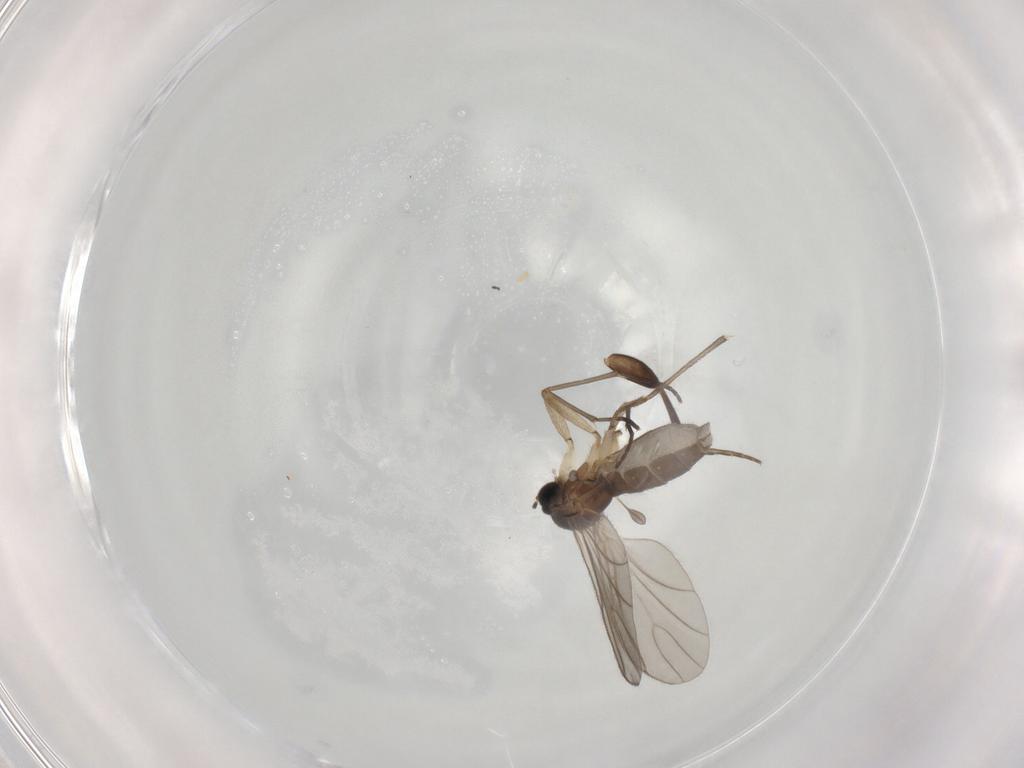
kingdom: Animalia
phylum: Arthropoda
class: Insecta
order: Diptera
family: Sciaridae
